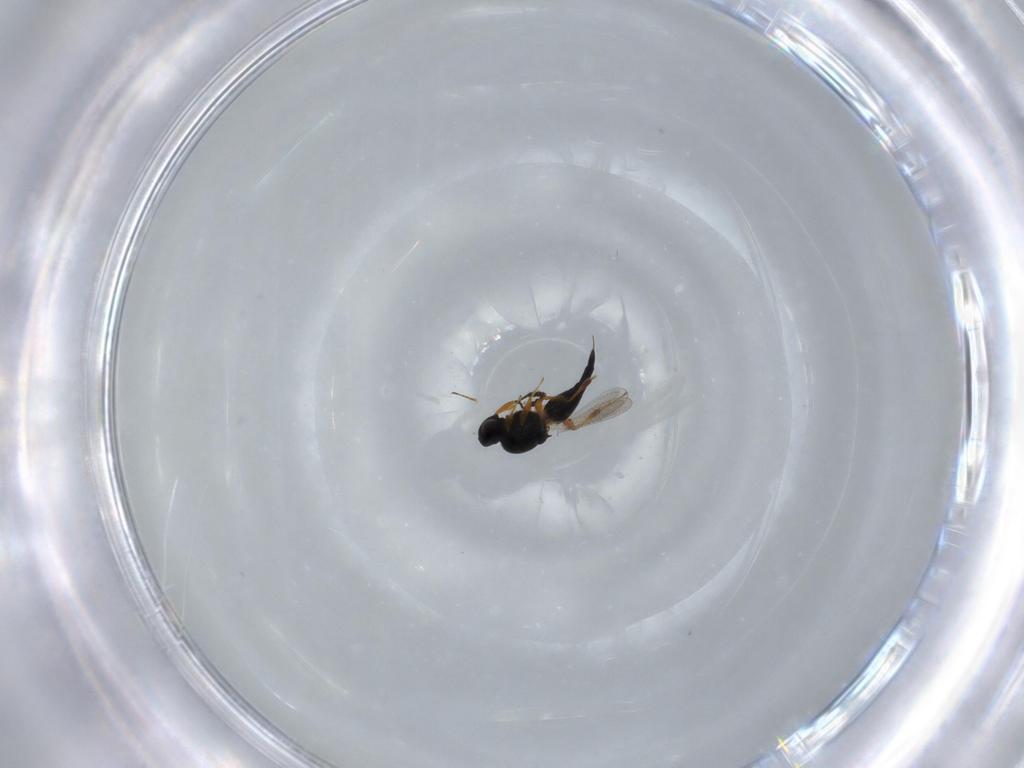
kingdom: Animalia
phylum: Arthropoda
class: Insecta
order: Hymenoptera
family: Platygastridae
